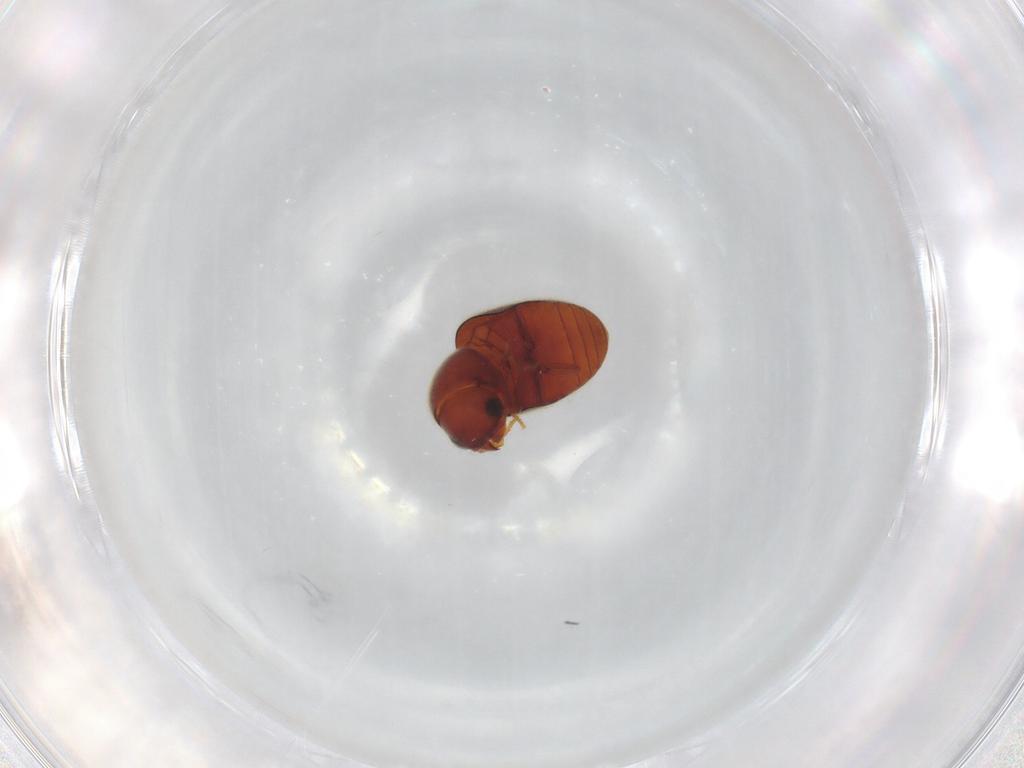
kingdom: Animalia
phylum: Arthropoda
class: Insecta
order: Coleoptera
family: Ptinidae
